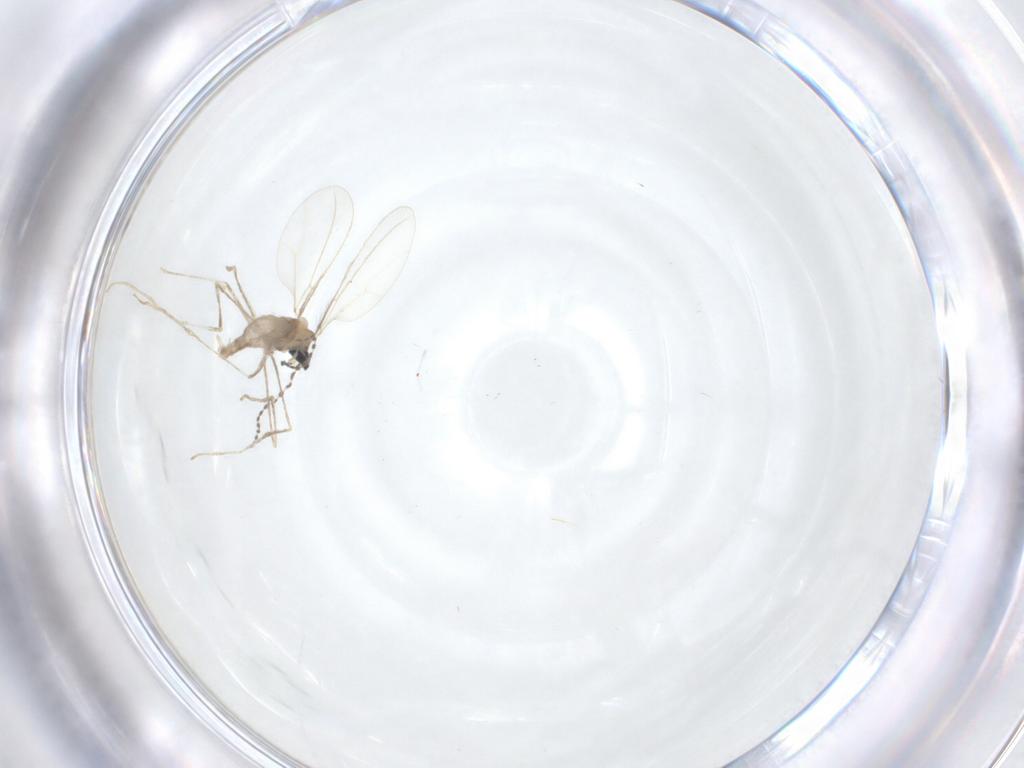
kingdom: Animalia
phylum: Arthropoda
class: Insecta
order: Diptera
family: Cecidomyiidae
